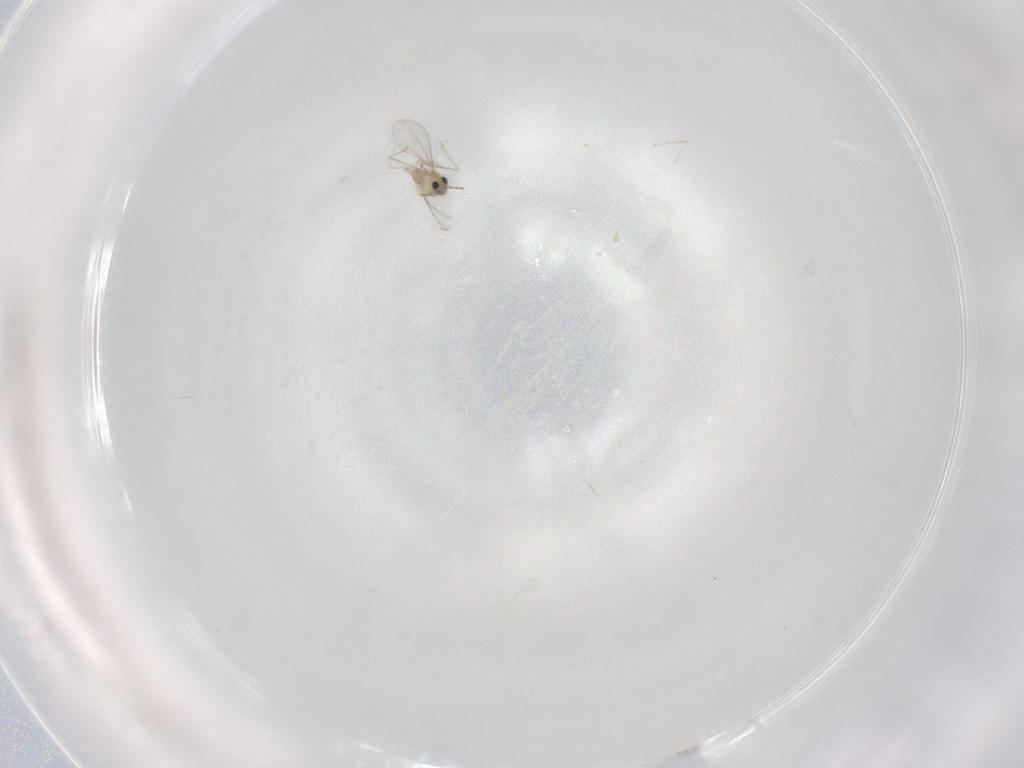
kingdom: Animalia
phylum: Arthropoda
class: Insecta
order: Diptera
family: Cecidomyiidae
